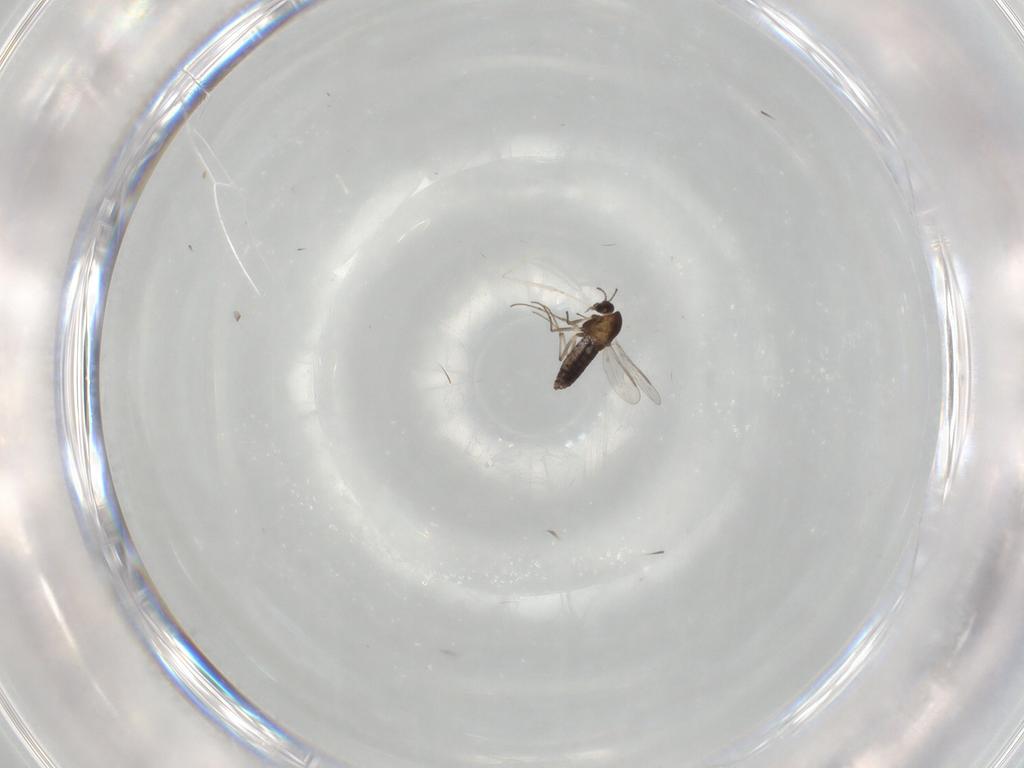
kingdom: Animalia
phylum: Arthropoda
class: Insecta
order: Diptera
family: Chironomidae
